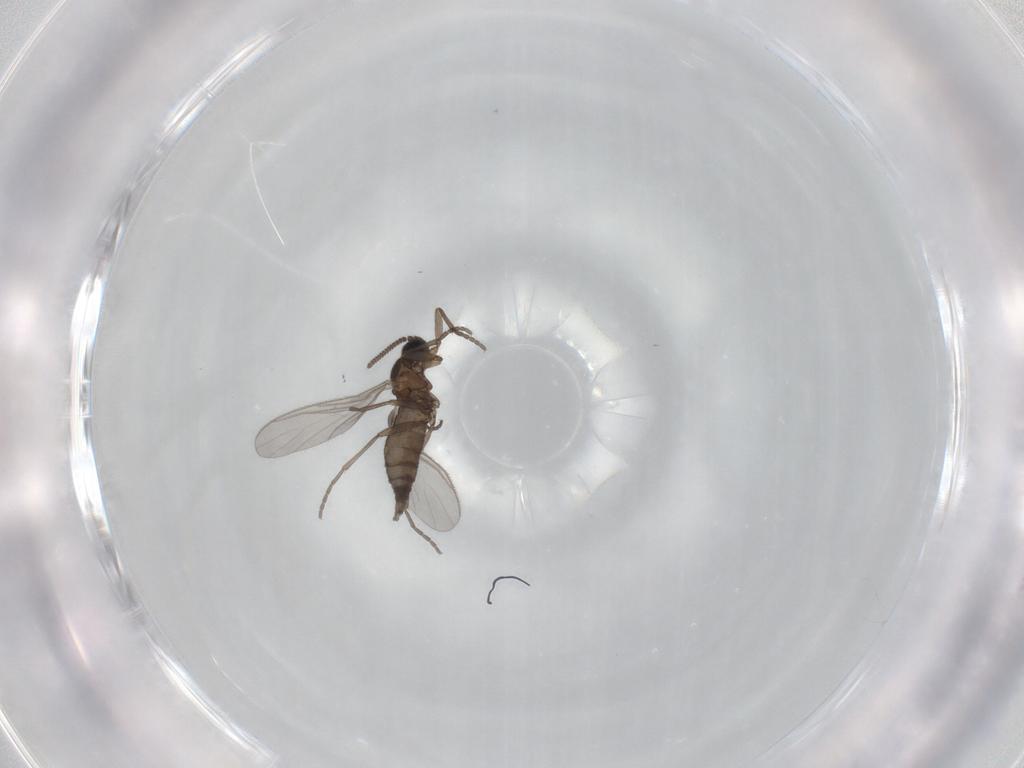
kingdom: Animalia
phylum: Arthropoda
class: Insecta
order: Diptera
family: Sciaridae
